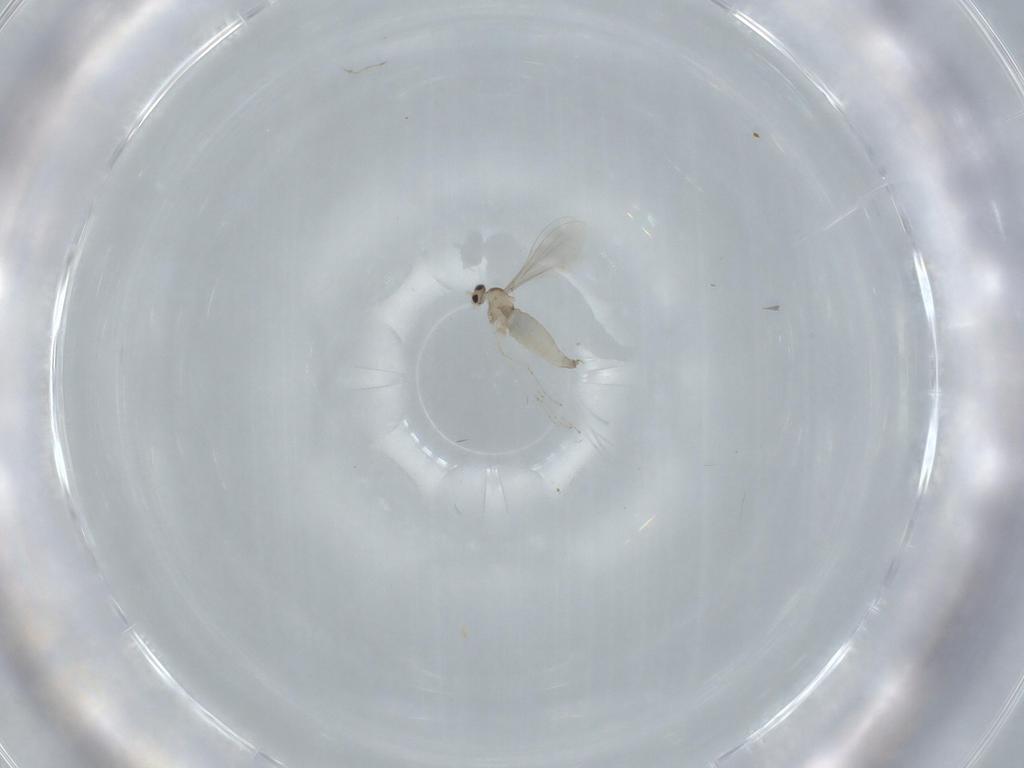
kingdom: Animalia
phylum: Arthropoda
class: Insecta
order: Diptera
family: Cecidomyiidae
